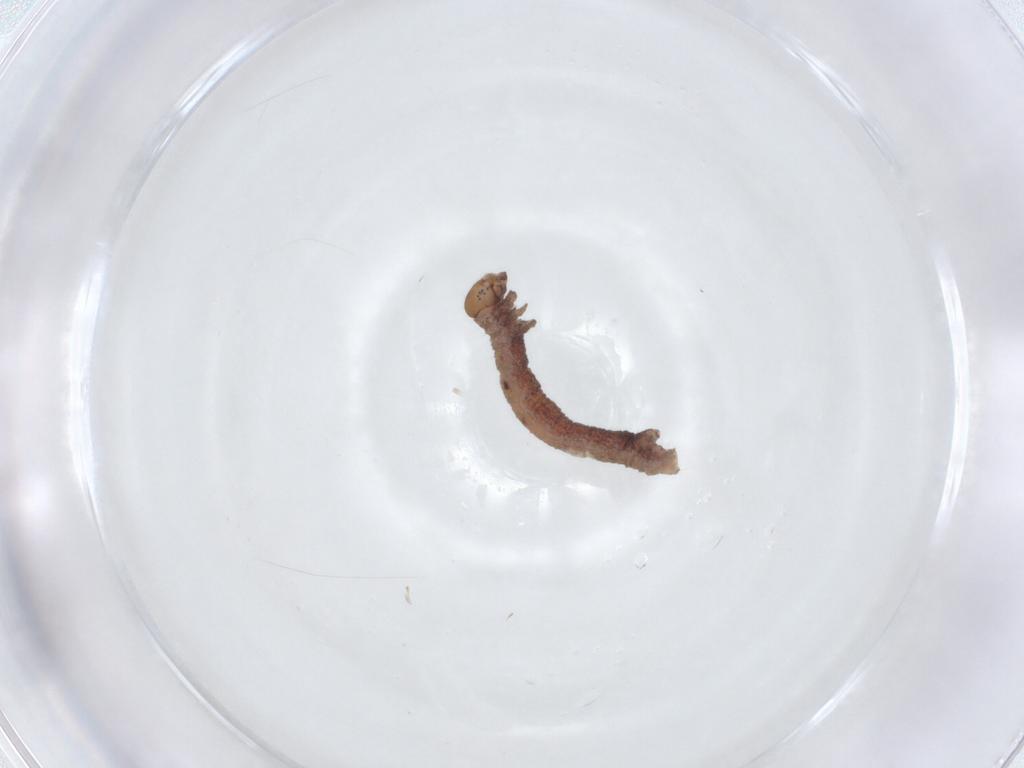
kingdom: Animalia
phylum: Arthropoda
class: Insecta
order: Lepidoptera
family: Geometridae
